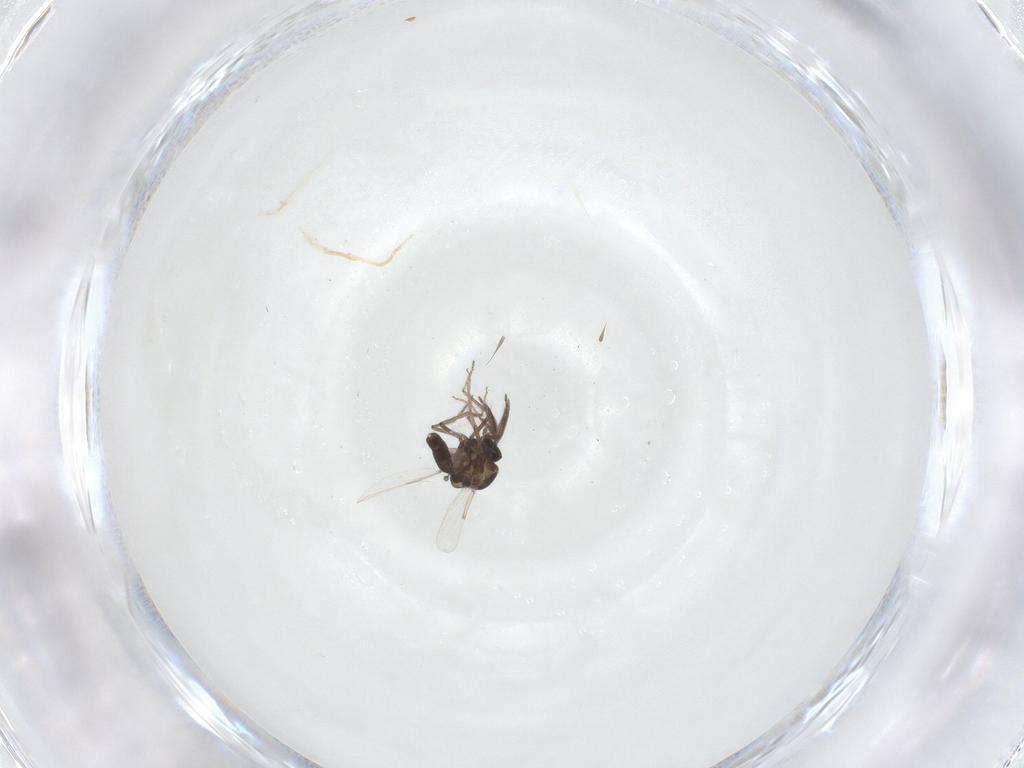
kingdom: Animalia
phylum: Arthropoda
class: Insecta
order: Diptera
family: Ceratopogonidae
